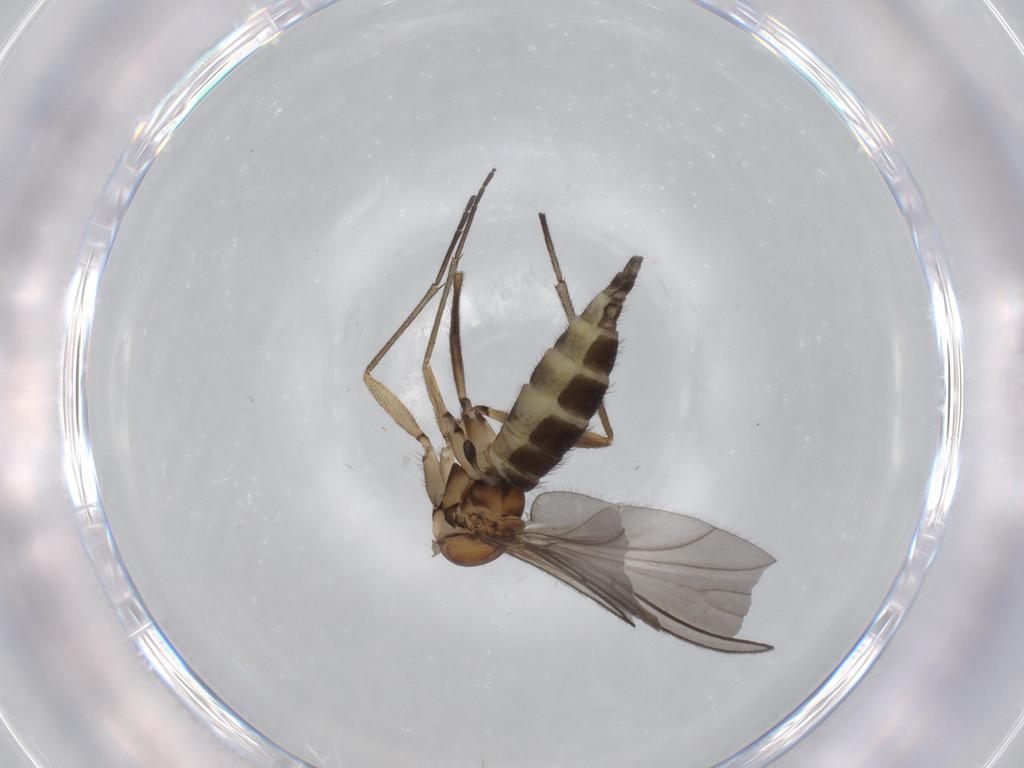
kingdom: Animalia
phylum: Arthropoda
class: Insecta
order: Diptera
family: Sciaridae
